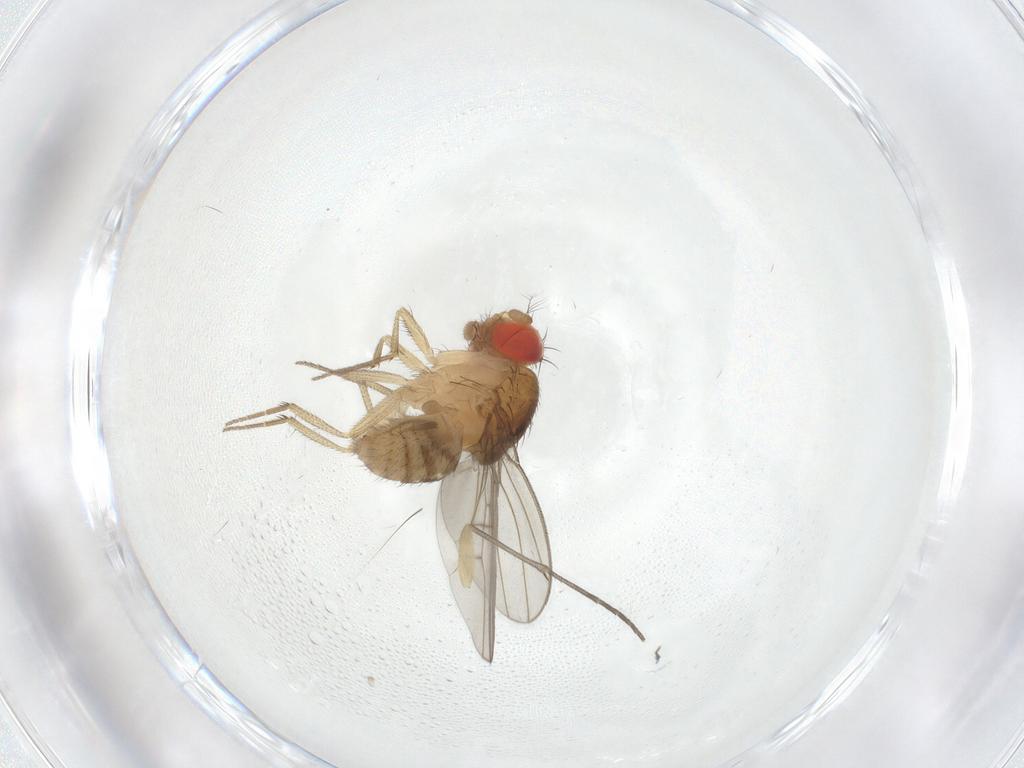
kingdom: Animalia
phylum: Arthropoda
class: Insecta
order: Diptera
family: Drosophilidae
